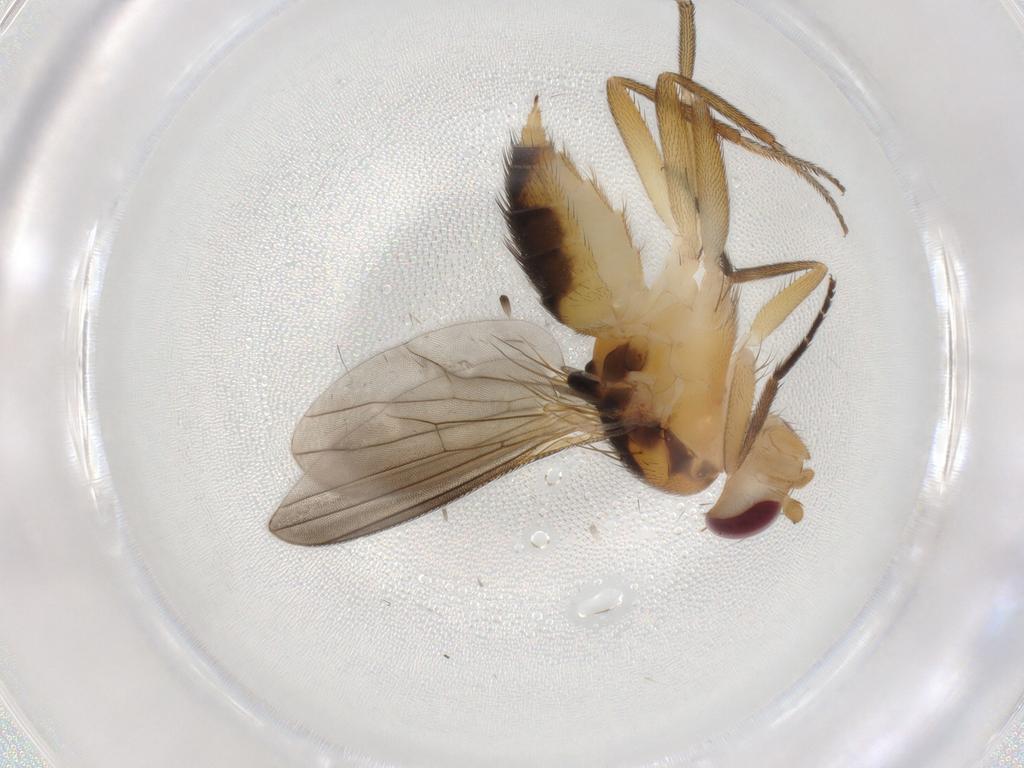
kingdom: Animalia
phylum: Arthropoda
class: Insecta
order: Diptera
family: Clusiidae
